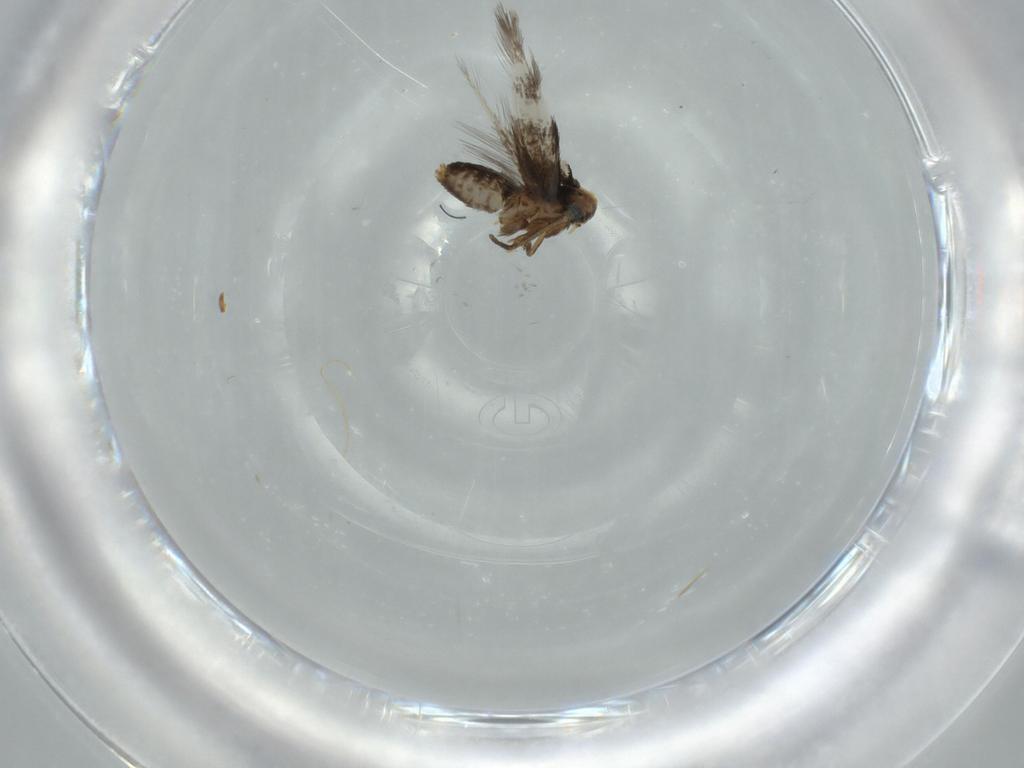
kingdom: Animalia
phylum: Arthropoda
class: Insecta
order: Lepidoptera
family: Nepticulidae
